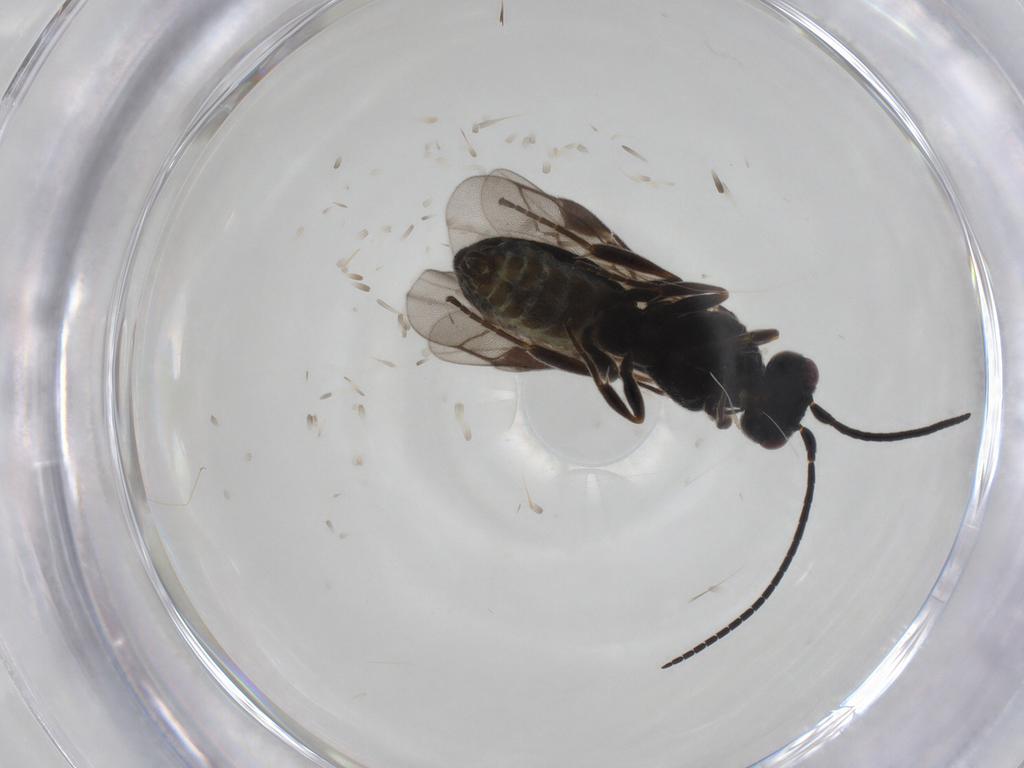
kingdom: Animalia
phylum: Arthropoda
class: Insecta
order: Hymenoptera
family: Braconidae
